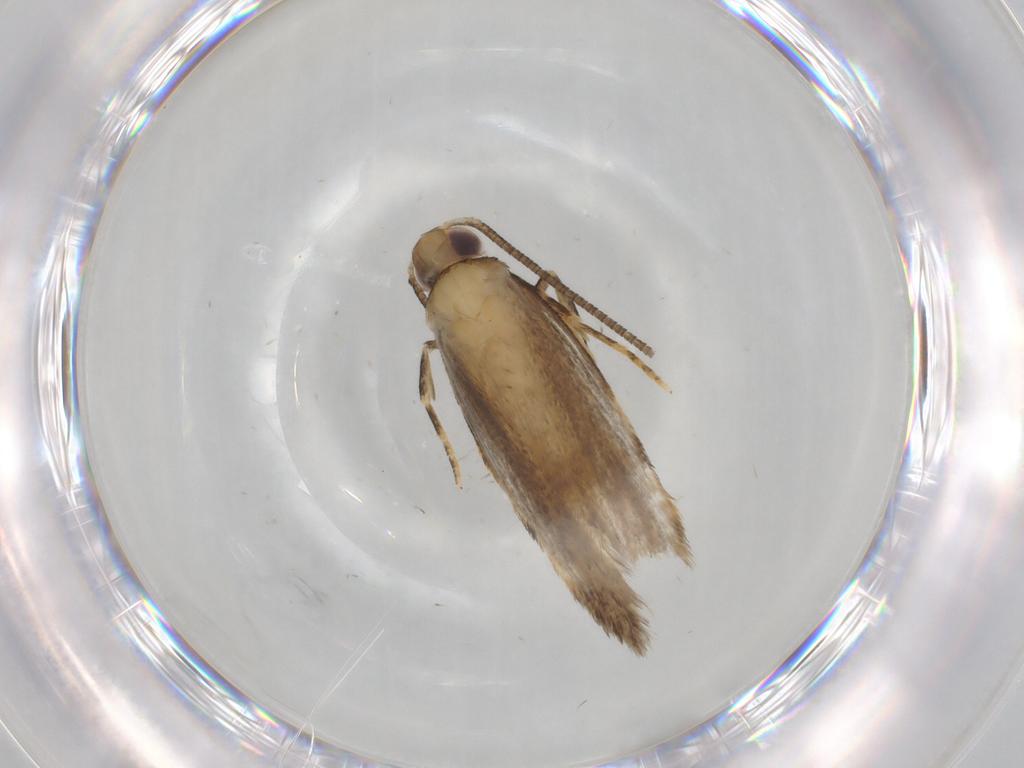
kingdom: Animalia
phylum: Arthropoda
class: Insecta
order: Lepidoptera
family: Autostichidae
